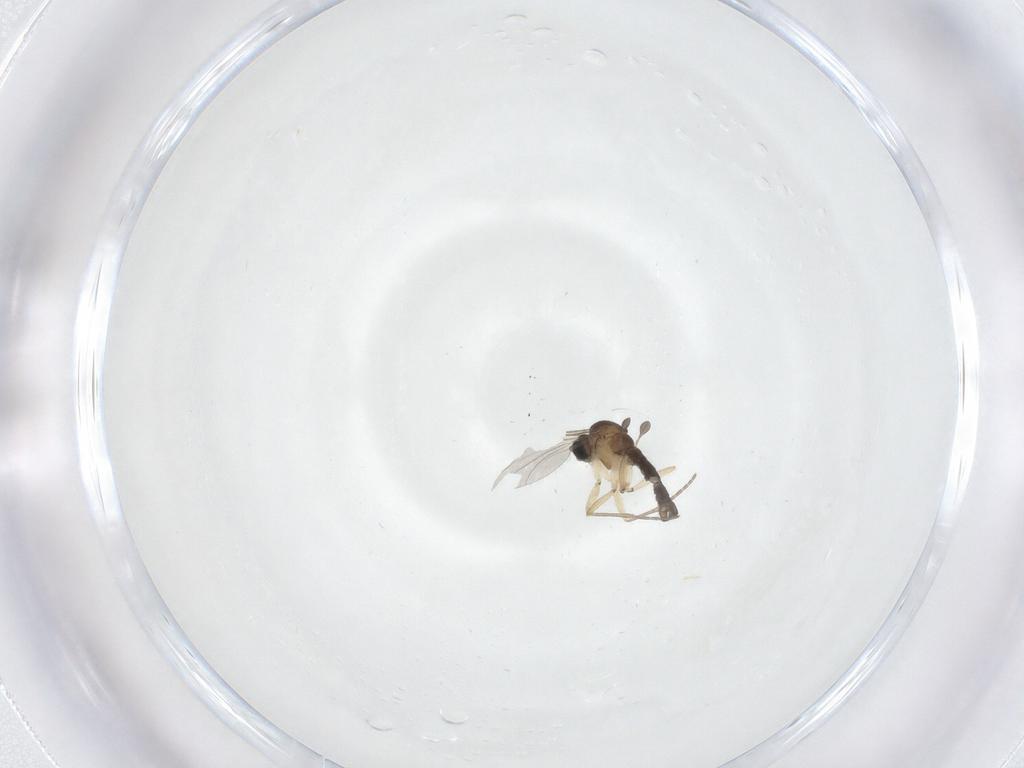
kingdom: Animalia
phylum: Arthropoda
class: Insecta
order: Diptera
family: Sciaridae
